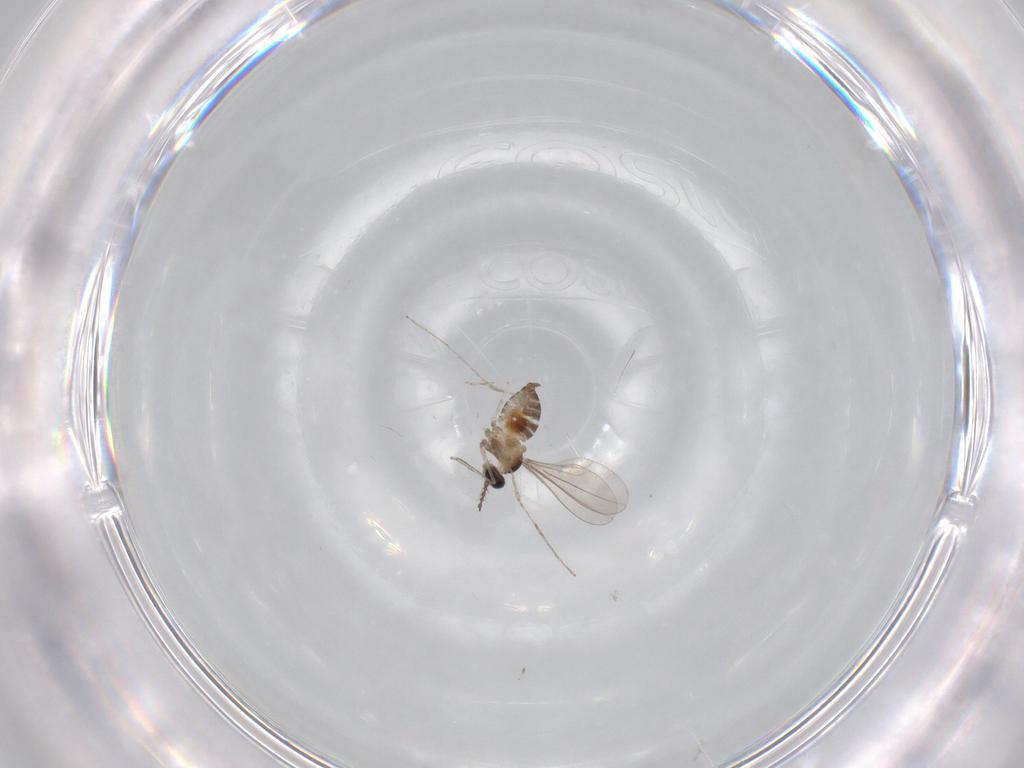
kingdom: Animalia
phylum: Arthropoda
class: Insecta
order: Diptera
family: Cecidomyiidae
